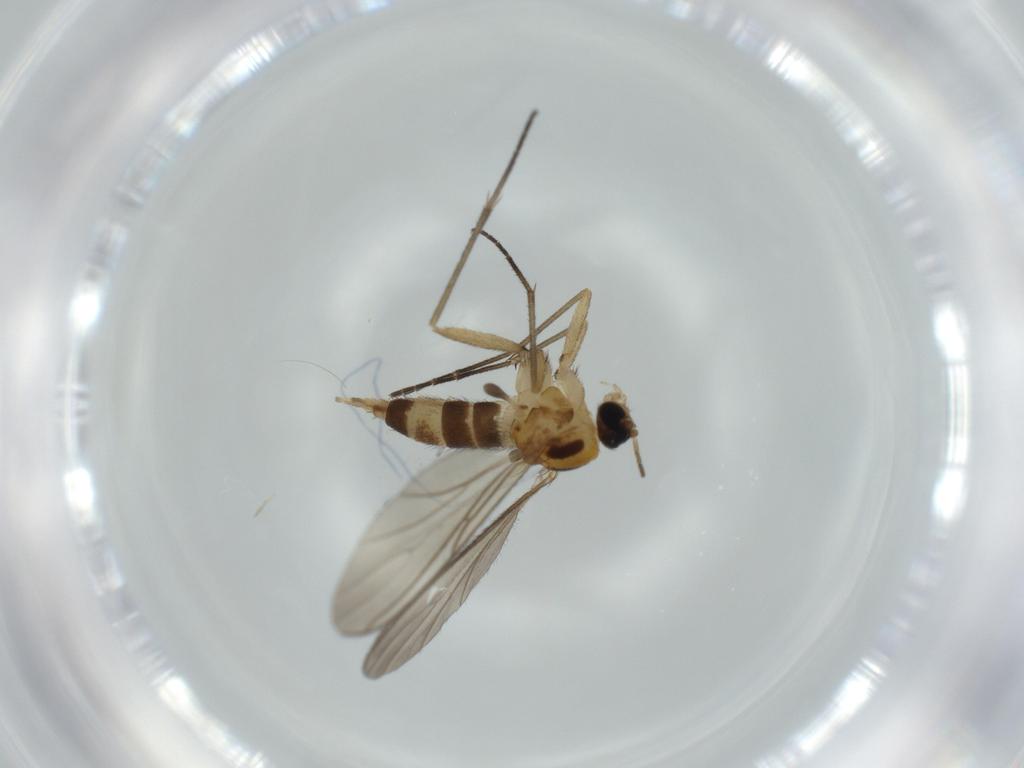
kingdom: Animalia
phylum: Arthropoda
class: Insecta
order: Diptera
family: Sciaridae
